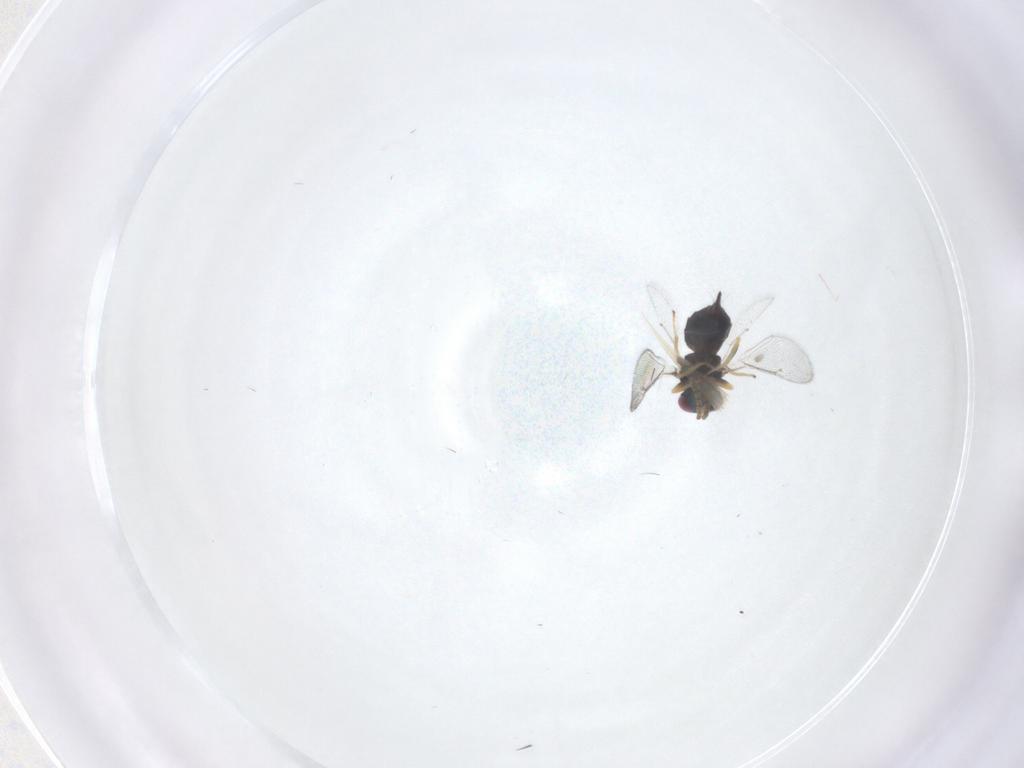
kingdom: Animalia
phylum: Arthropoda
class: Insecta
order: Hymenoptera
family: Eulophidae
